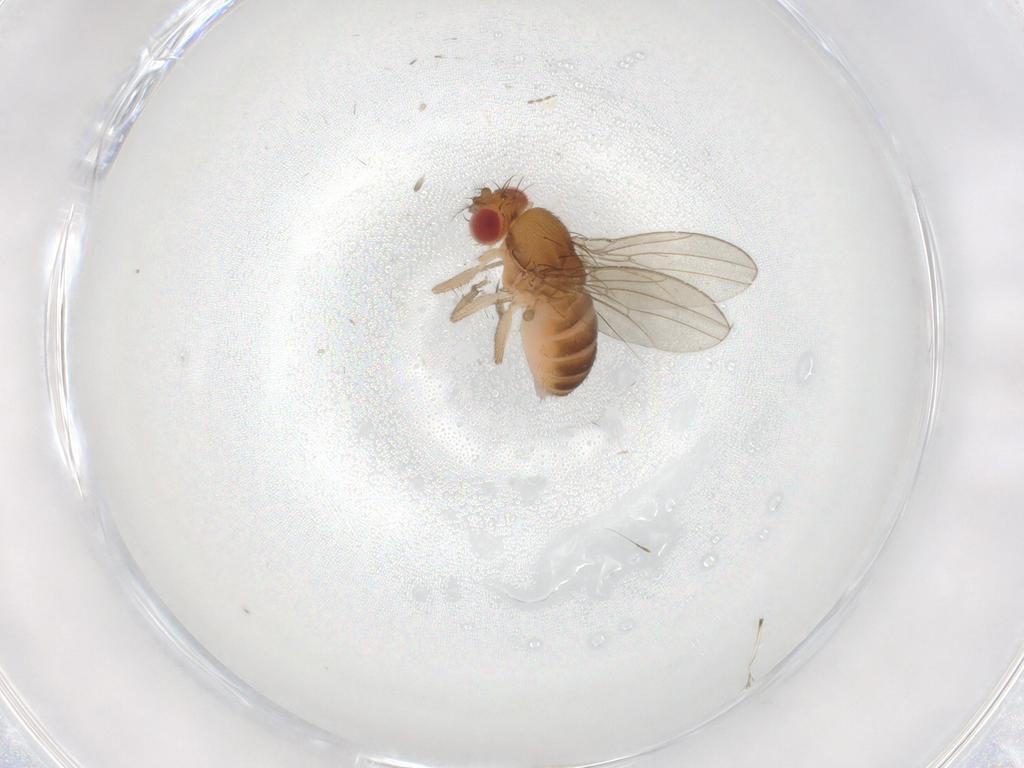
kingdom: Animalia
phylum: Arthropoda
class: Insecta
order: Diptera
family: Drosophilidae
